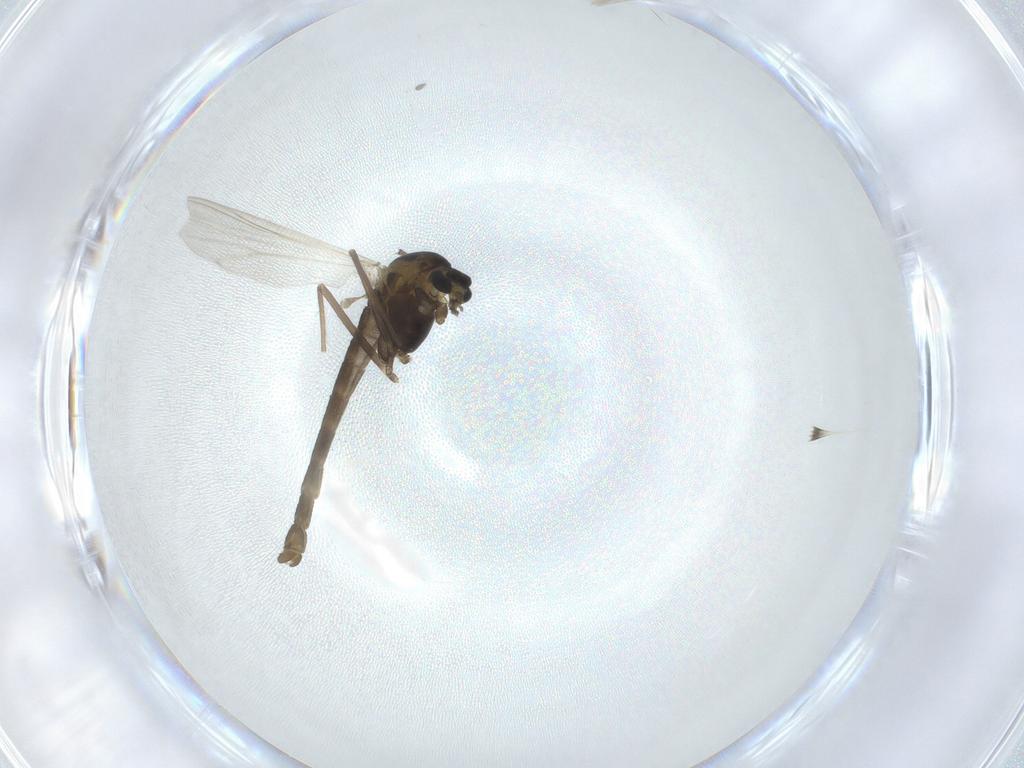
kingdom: Animalia
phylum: Arthropoda
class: Insecta
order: Diptera
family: Chironomidae
